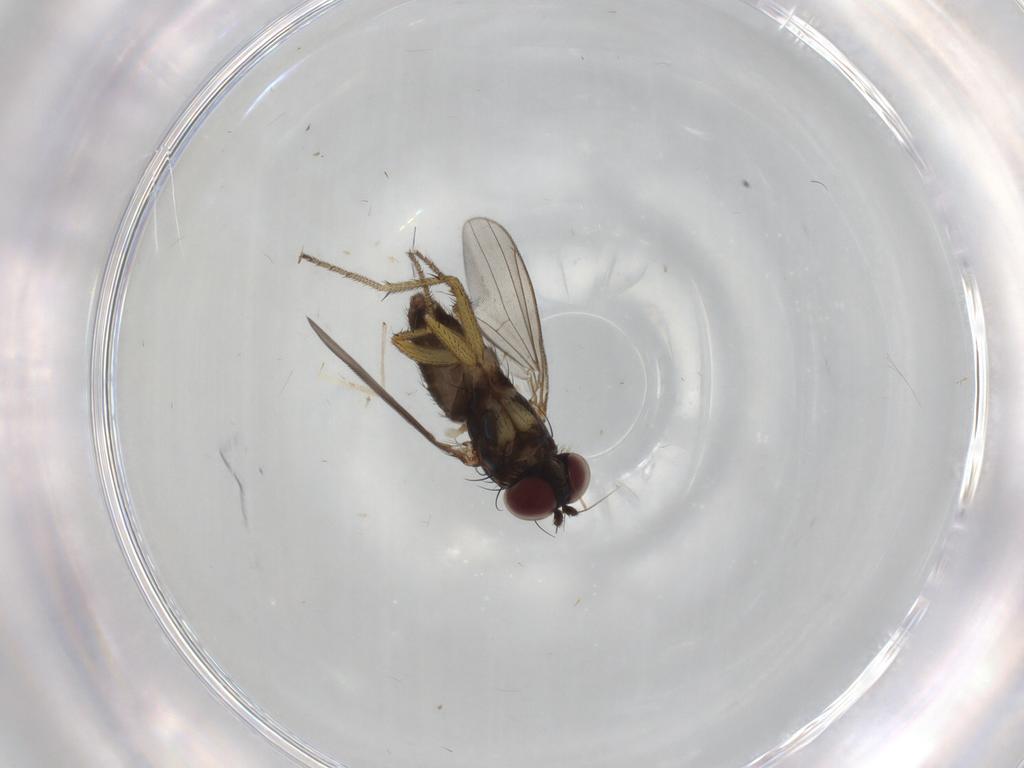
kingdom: Animalia
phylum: Arthropoda
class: Insecta
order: Diptera
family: Dolichopodidae
